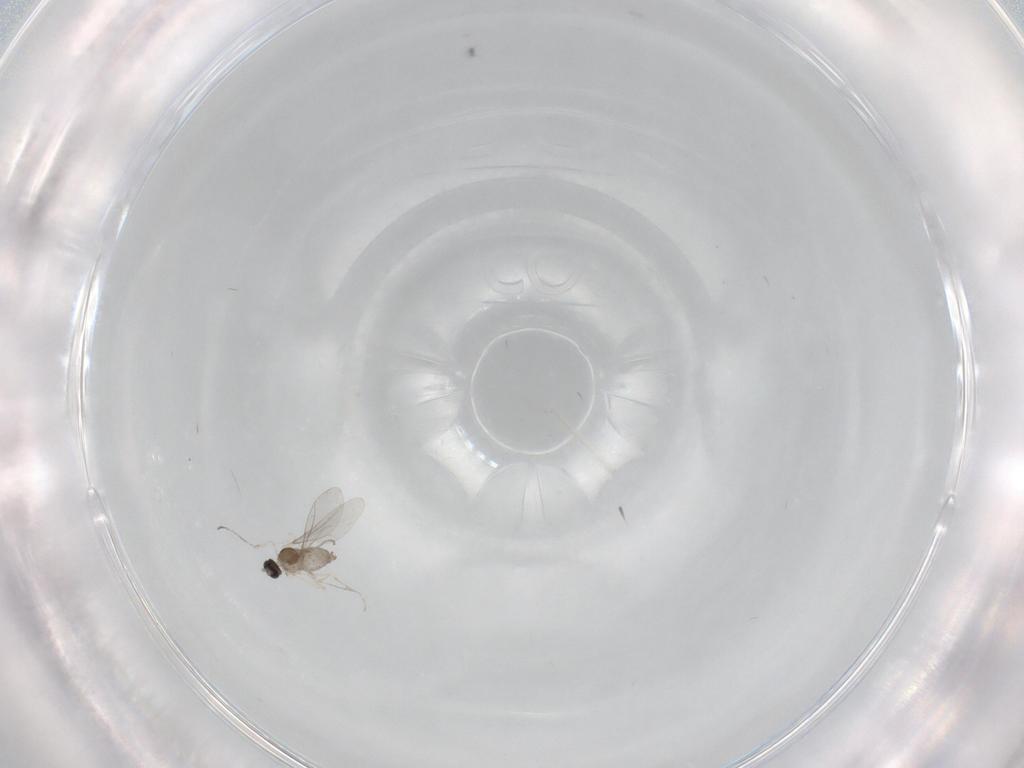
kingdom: Animalia
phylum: Arthropoda
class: Insecta
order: Diptera
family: Cecidomyiidae
